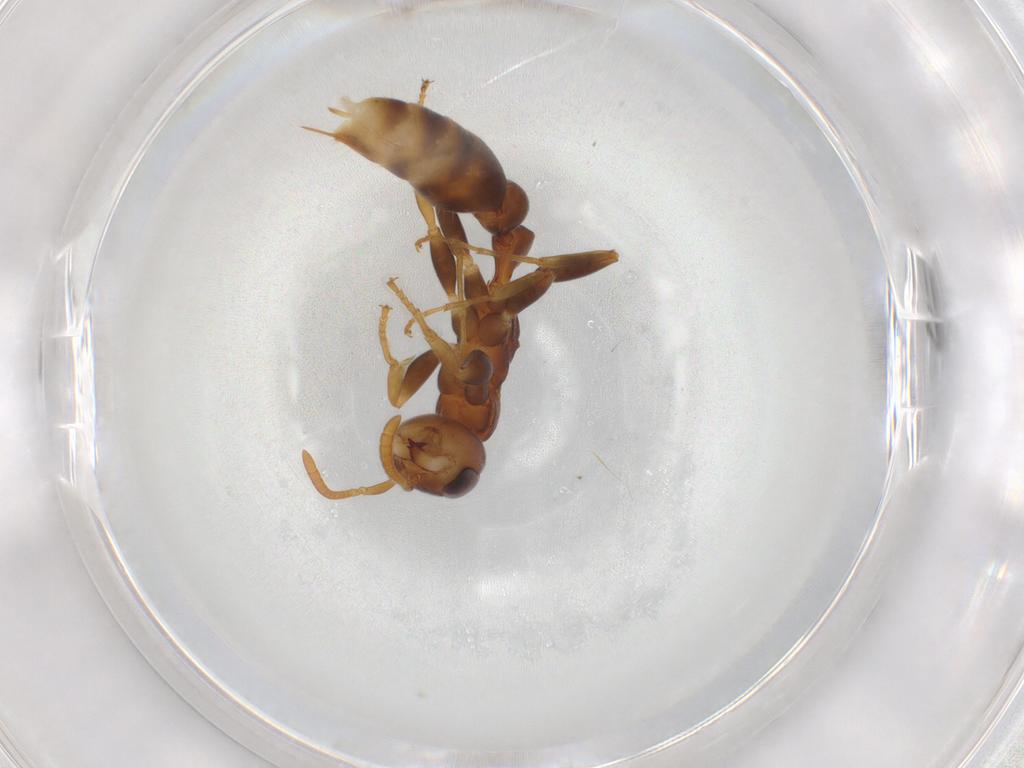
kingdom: Animalia
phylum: Arthropoda
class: Insecta
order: Hymenoptera
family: Formicidae
